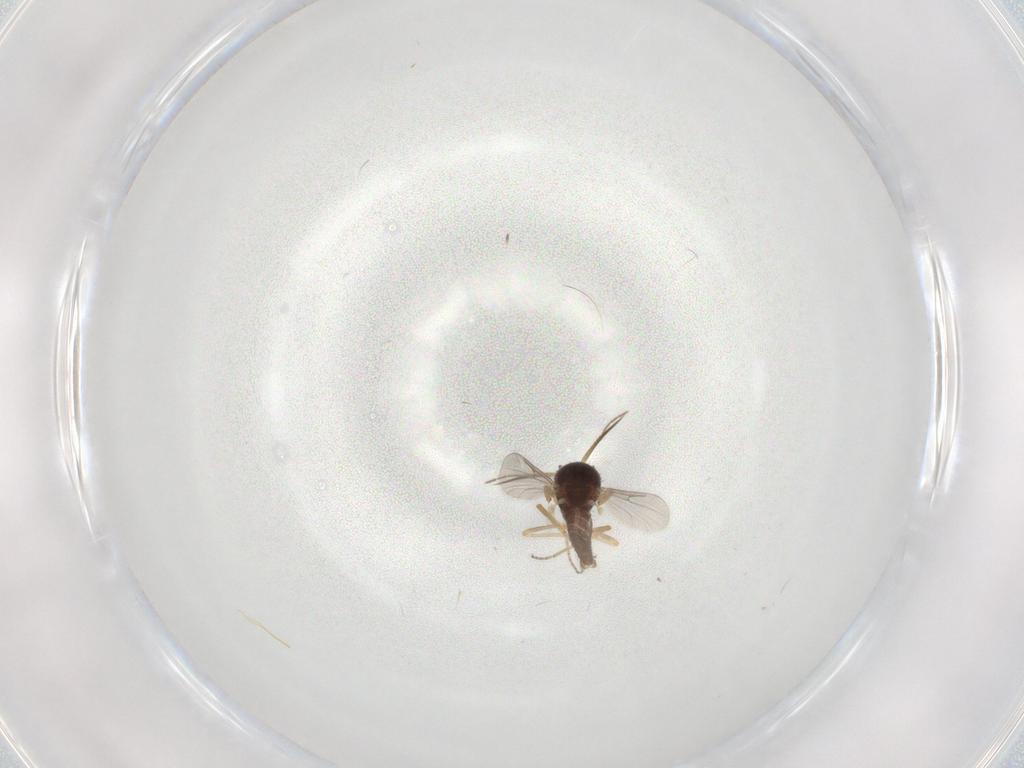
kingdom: Animalia
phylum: Arthropoda
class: Insecta
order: Diptera
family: Ceratopogonidae
